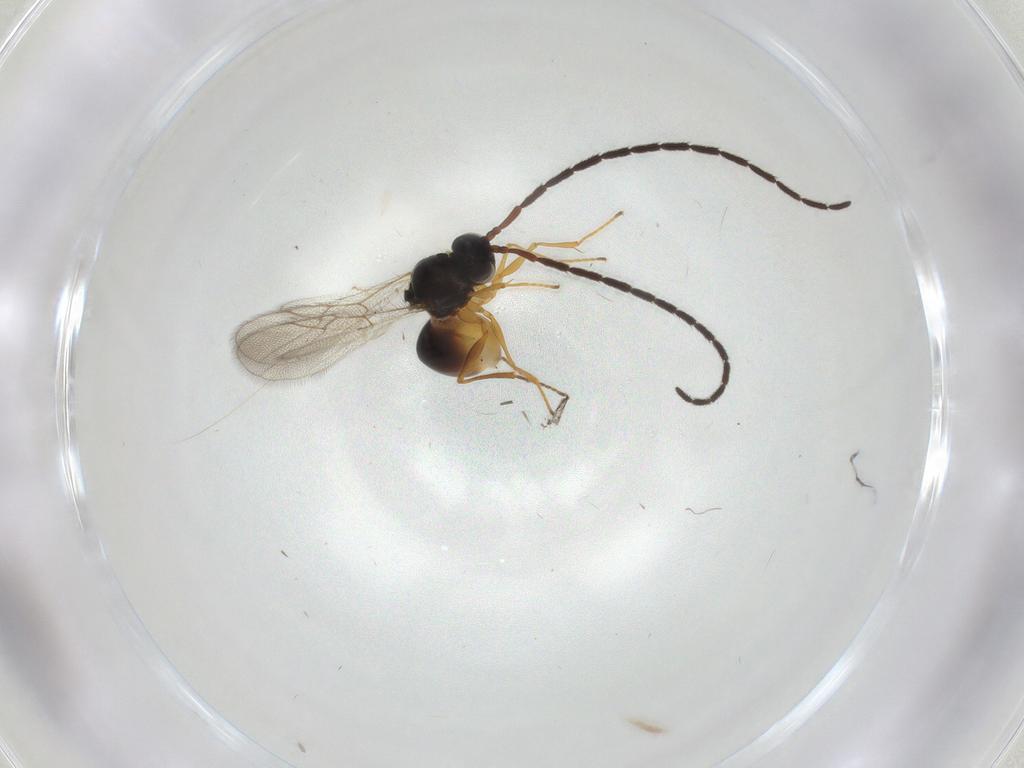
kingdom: Animalia
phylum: Arthropoda
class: Insecta
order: Hymenoptera
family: Figitidae
